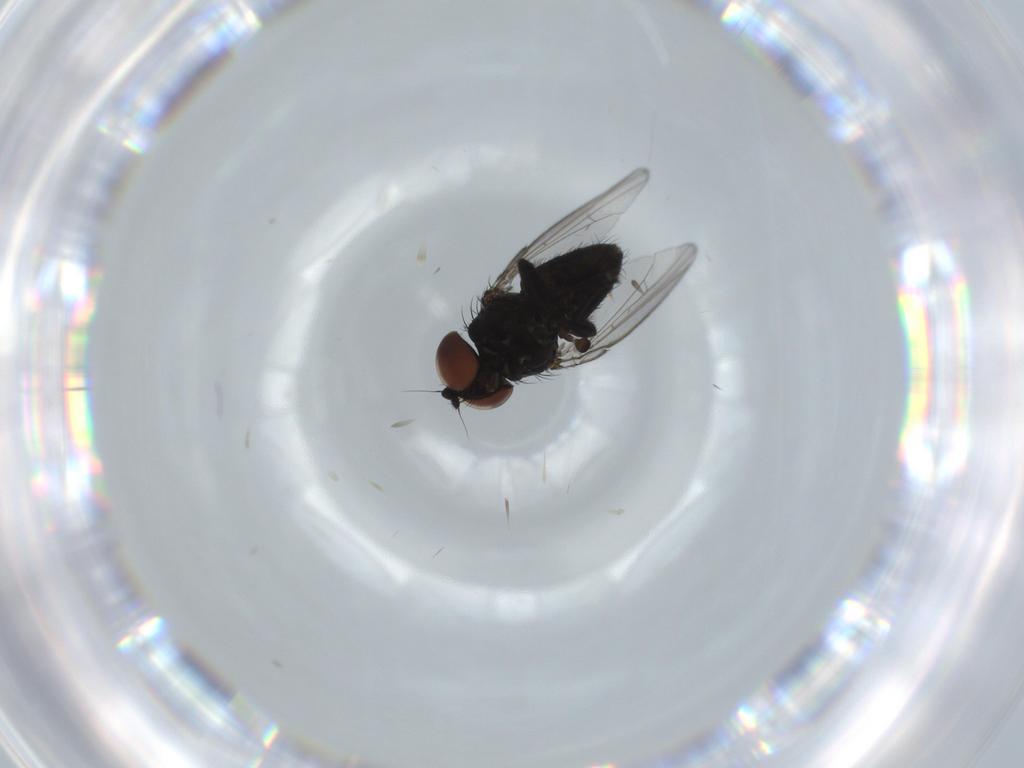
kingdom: Animalia
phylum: Arthropoda
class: Insecta
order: Diptera
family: Milichiidae
